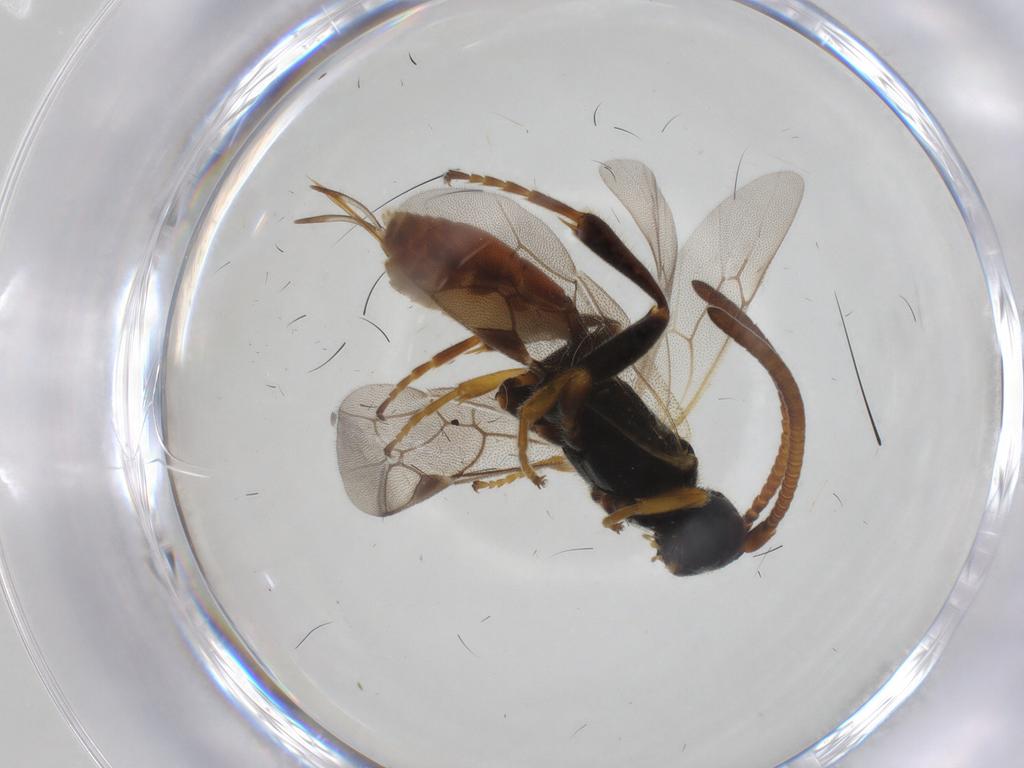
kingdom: Animalia
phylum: Arthropoda
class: Insecta
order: Hymenoptera
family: Ichneumonidae
